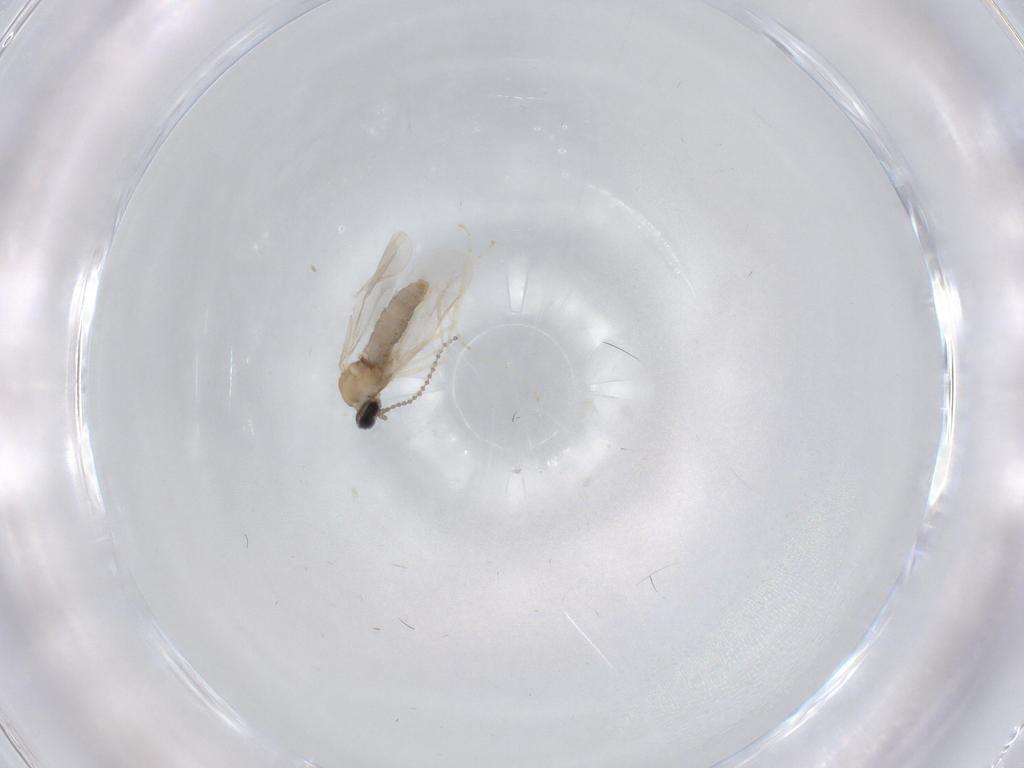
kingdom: Animalia
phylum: Arthropoda
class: Insecta
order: Diptera
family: Cecidomyiidae
